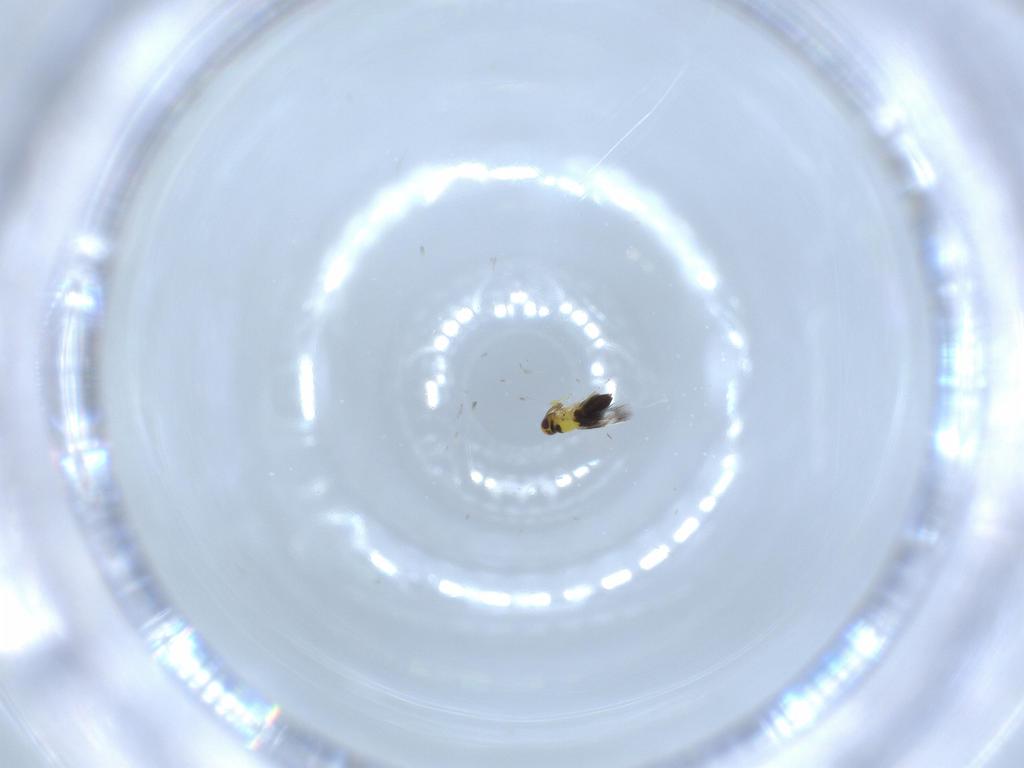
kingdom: Animalia
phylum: Arthropoda
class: Insecta
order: Hymenoptera
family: Signiphoridae
